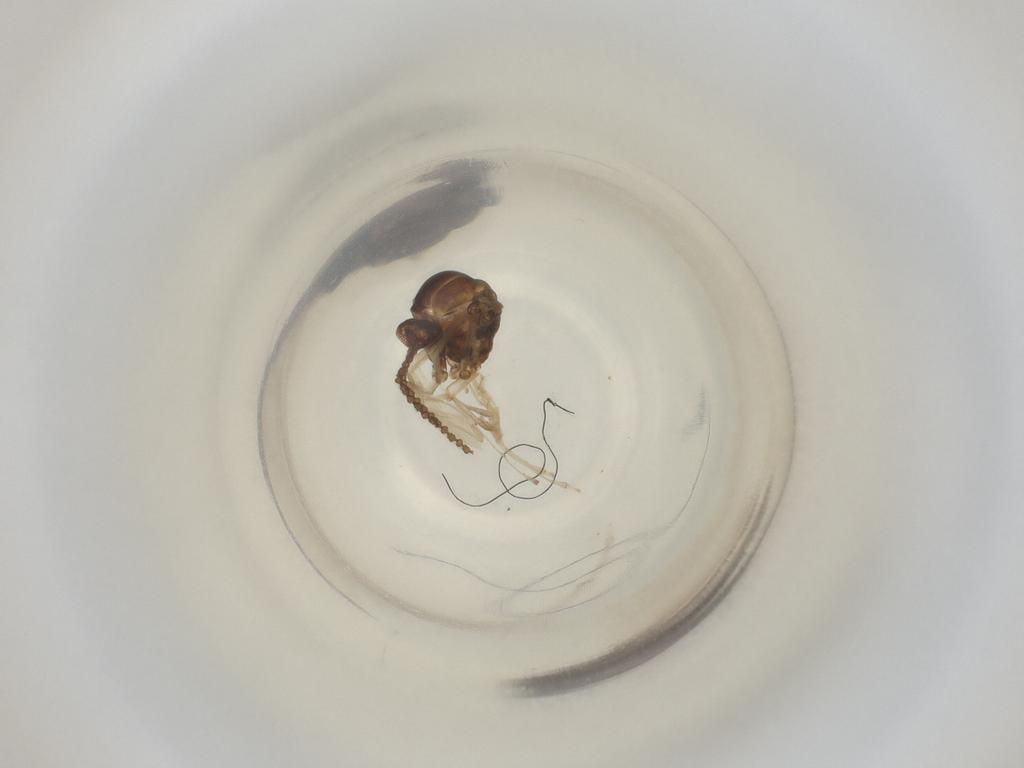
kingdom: Animalia
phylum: Arthropoda
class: Insecta
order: Diptera
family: Cecidomyiidae
